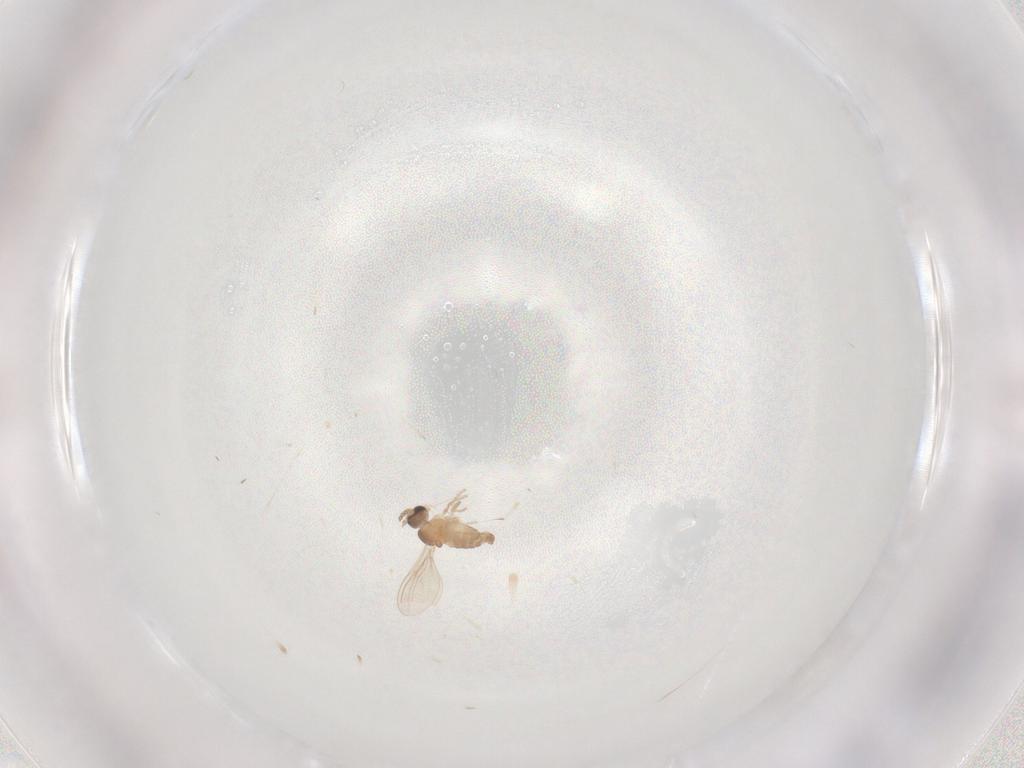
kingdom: Animalia
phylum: Arthropoda
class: Insecta
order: Diptera
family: Cecidomyiidae
